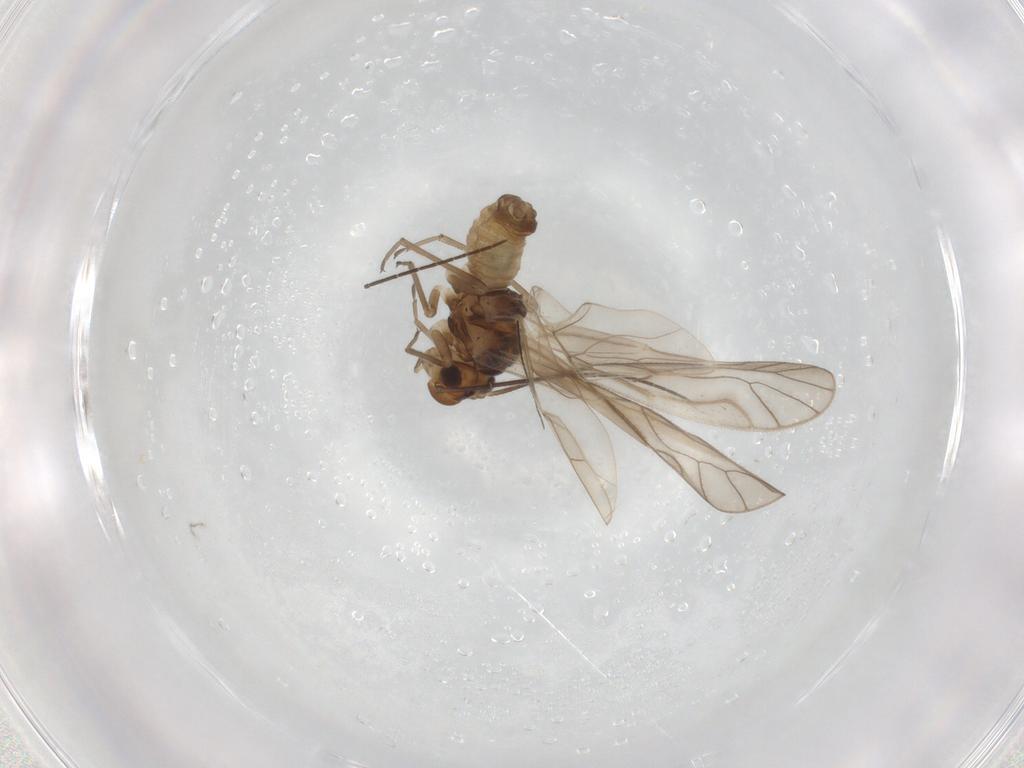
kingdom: Animalia
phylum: Arthropoda
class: Insecta
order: Psocodea
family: Philotarsidae
